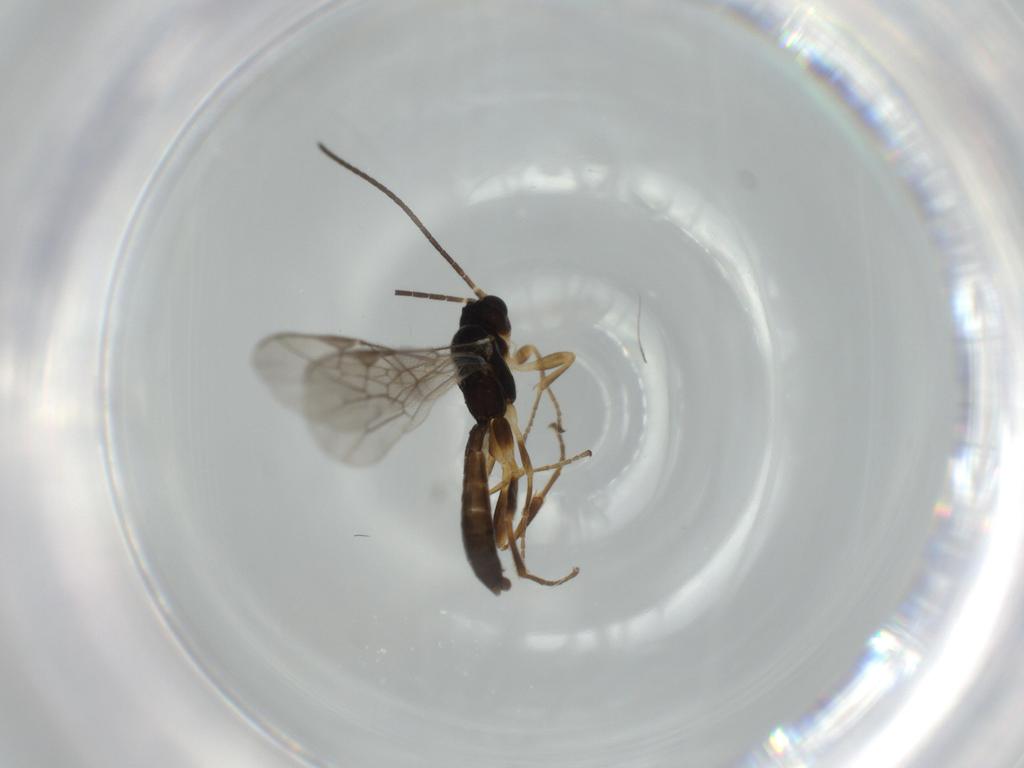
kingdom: Animalia
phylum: Arthropoda
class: Insecta
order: Hymenoptera
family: Ichneumonidae
